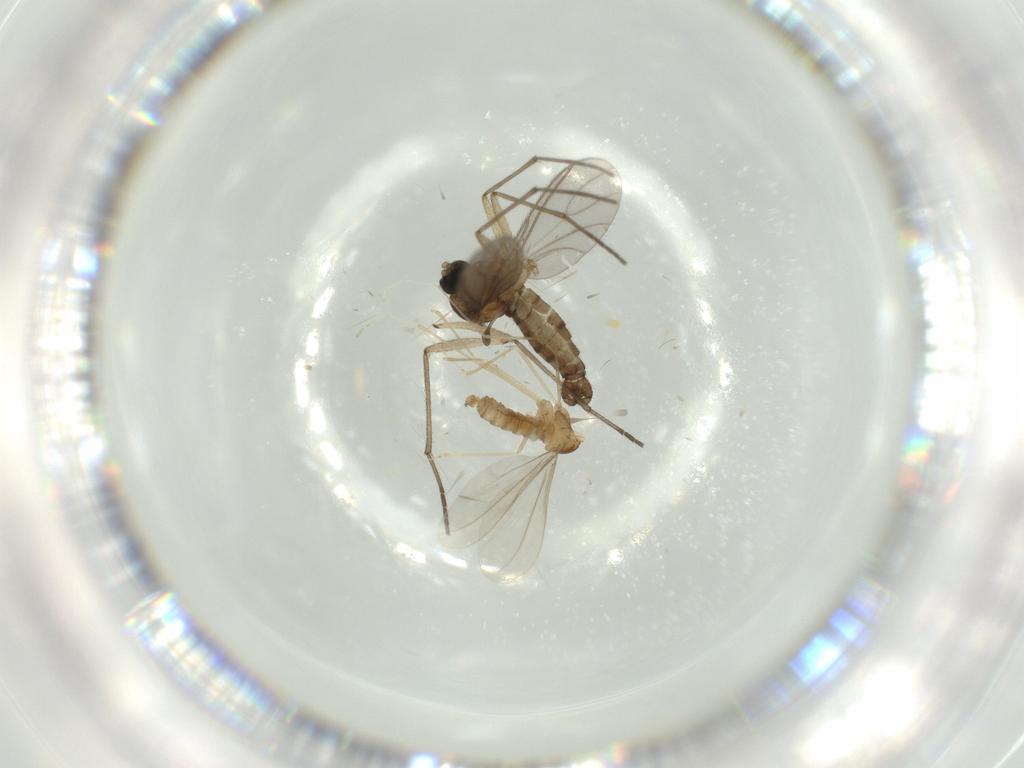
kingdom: Animalia
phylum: Arthropoda
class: Insecta
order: Diptera
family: Cecidomyiidae
